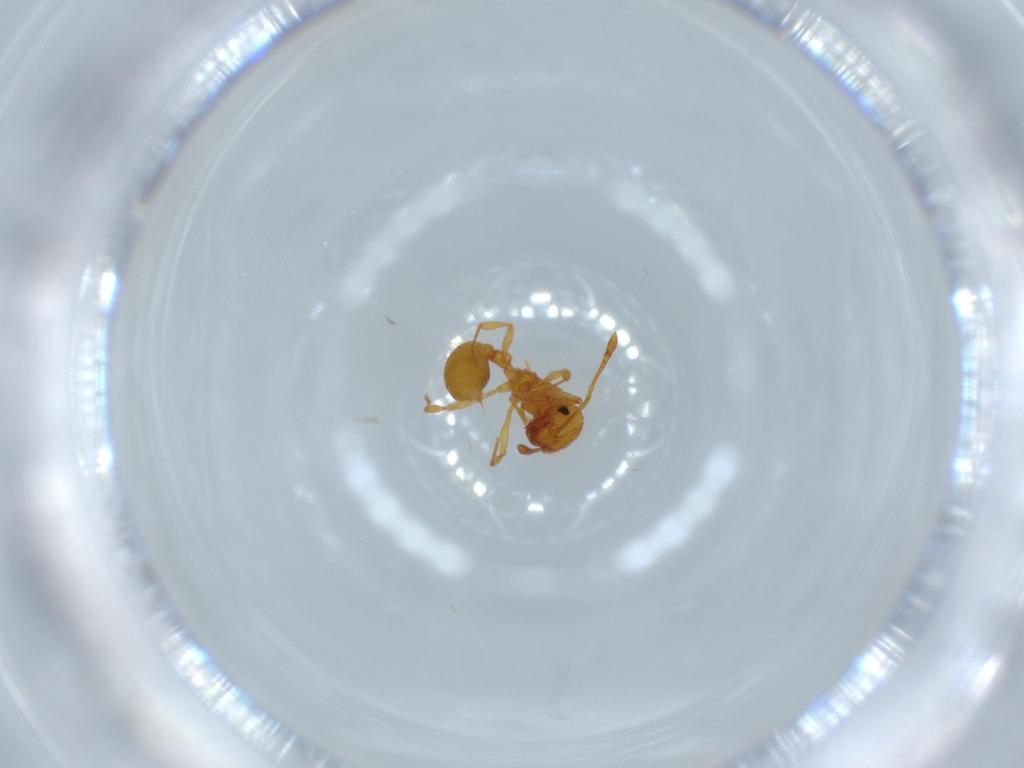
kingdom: Animalia
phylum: Arthropoda
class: Insecta
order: Hymenoptera
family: Formicidae
